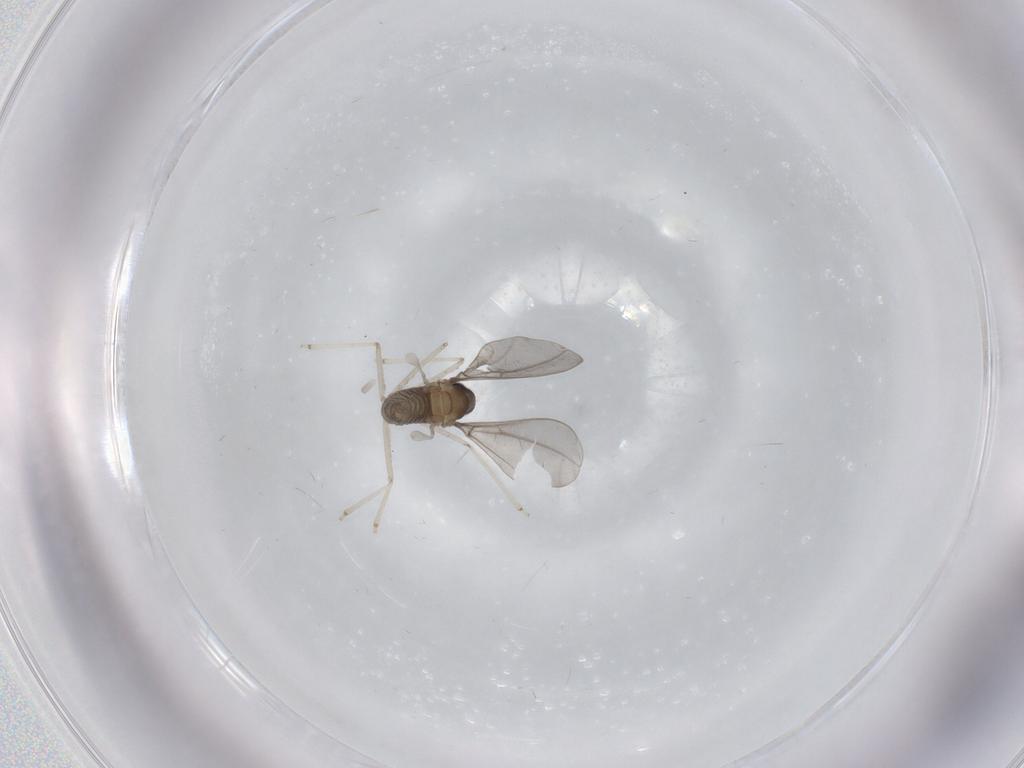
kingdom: Animalia
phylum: Arthropoda
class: Insecta
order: Diptera
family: Cecidomyiidae
